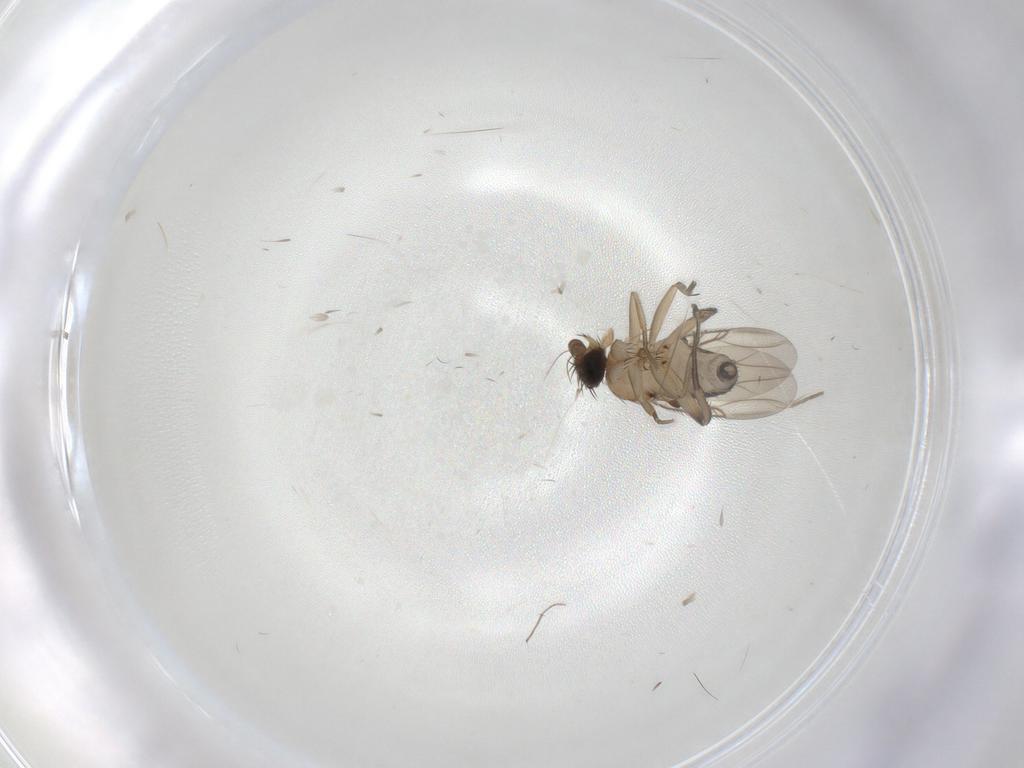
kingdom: Animalia
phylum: Arthropoda
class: Insecta
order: Diptera
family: Phoridae
